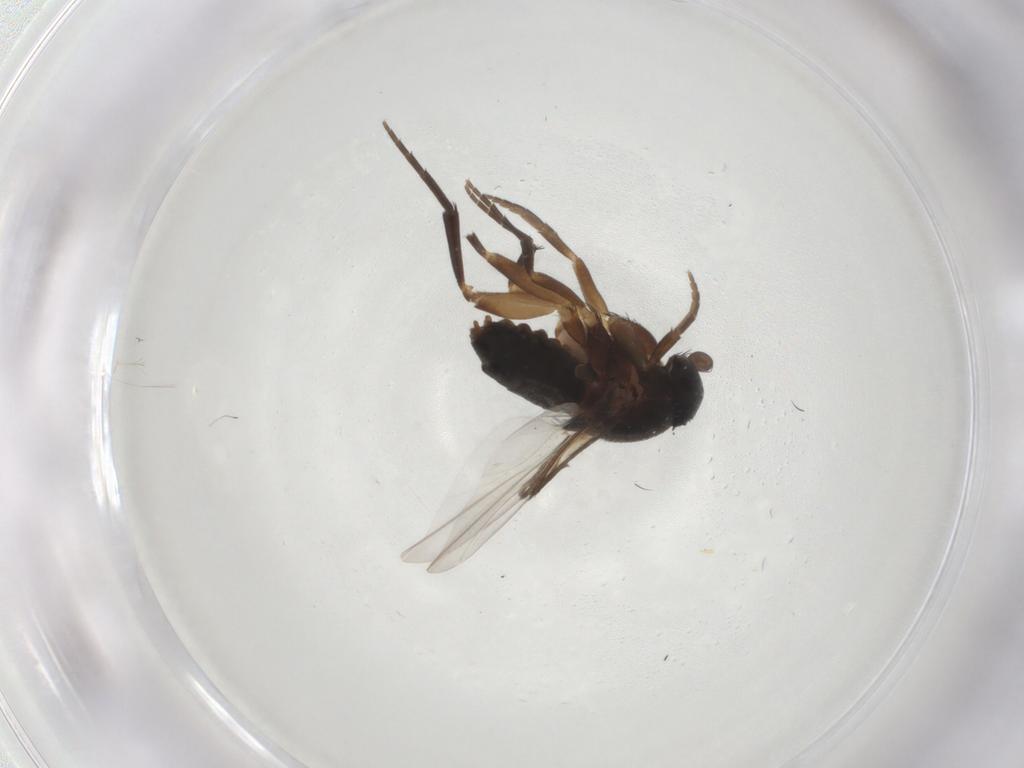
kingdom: Animalia
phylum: Arthropoda
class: Insecta
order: Diptera
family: Phoridae
